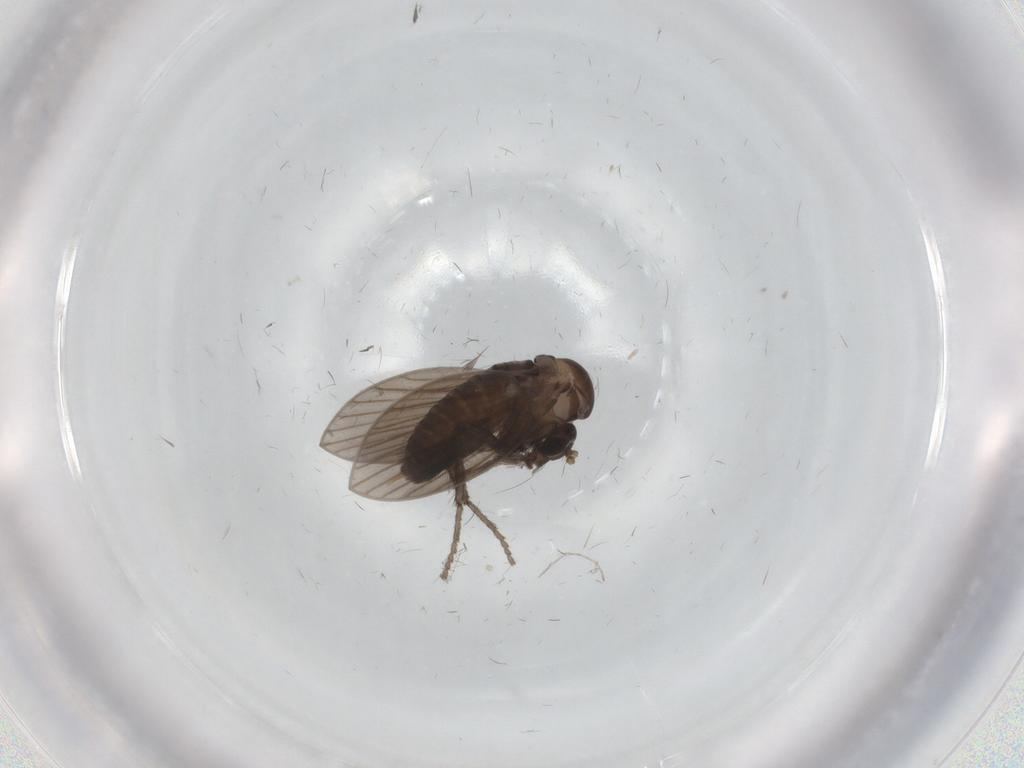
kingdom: Animalia
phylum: Arthropoda
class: Insecta
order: Diptera
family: Psychodidae
